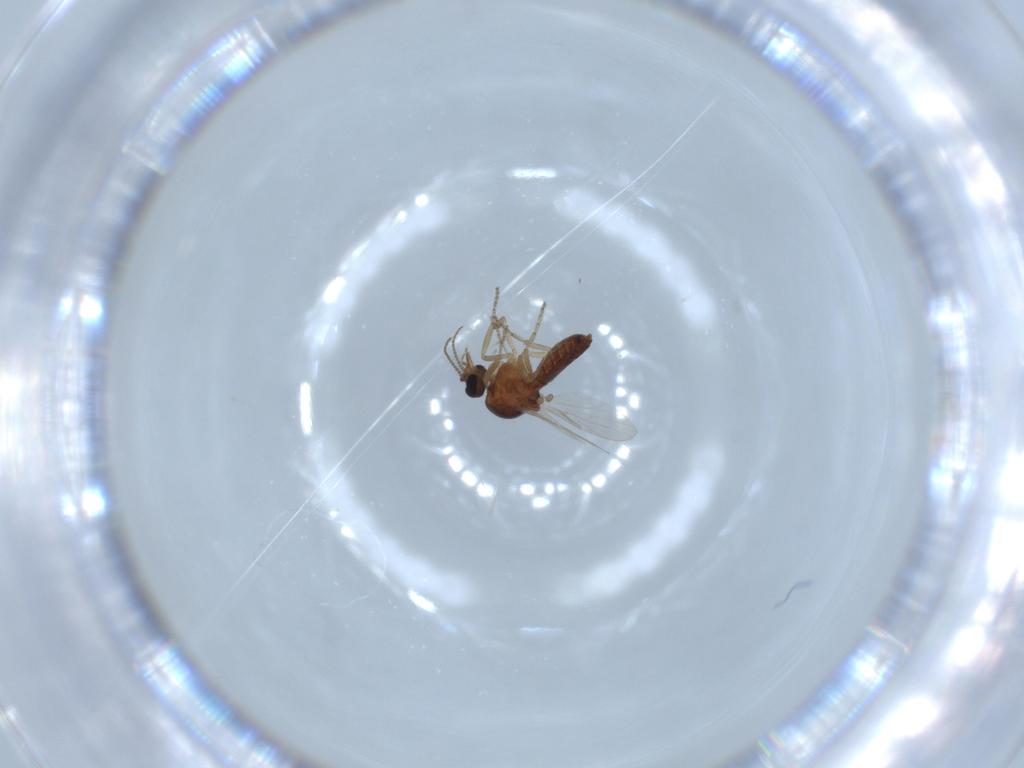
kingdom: Animalia
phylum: Arthropoda
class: Insecta
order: Diptera
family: Ceratopogonidae
